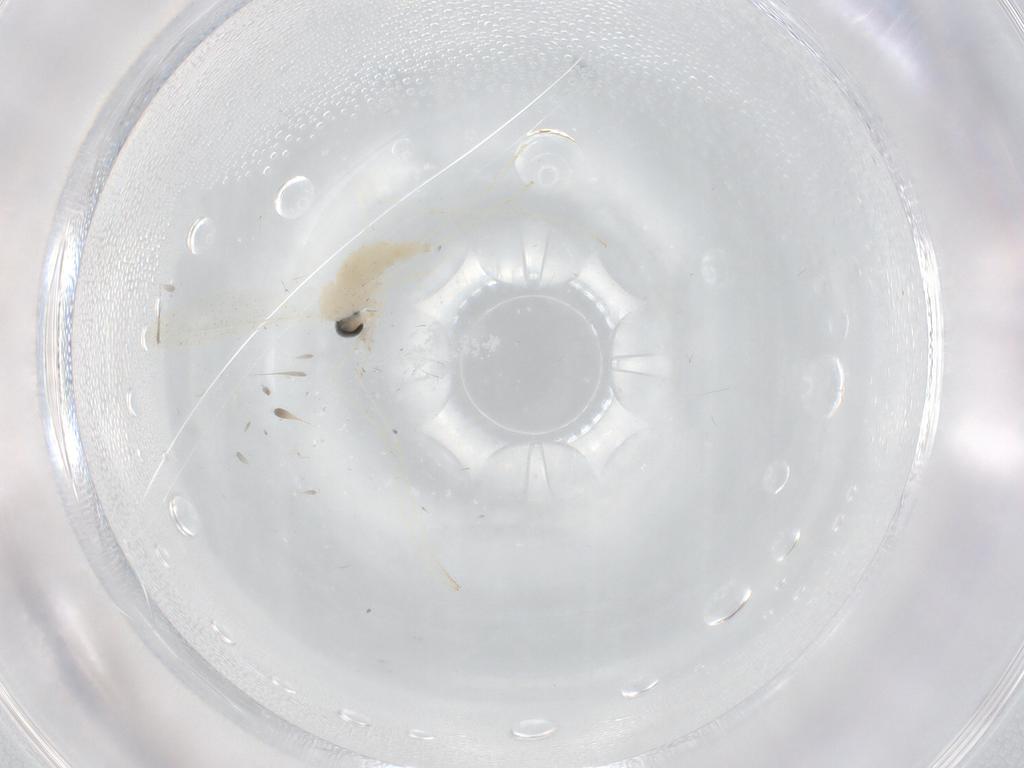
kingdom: Animalia
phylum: Arthropoda
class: Insecta
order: Diptera
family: Cecidomyiidae
